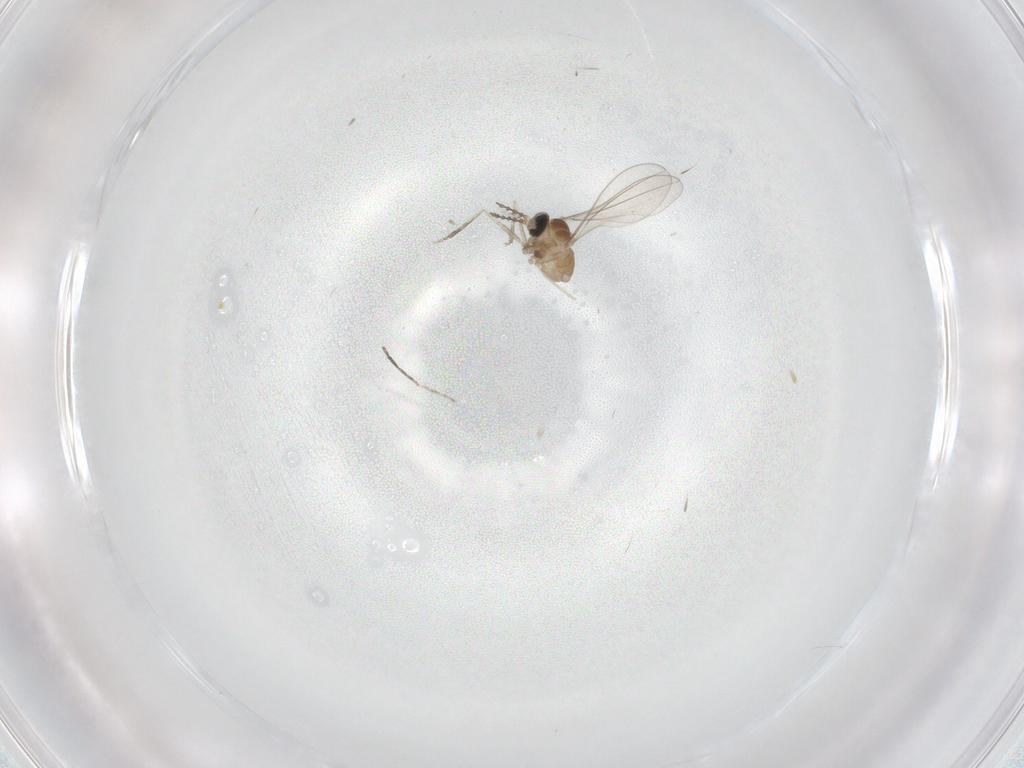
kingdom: Animalia
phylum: Arthropoda
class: Insecta
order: Diptera
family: Cecidomyiidae
